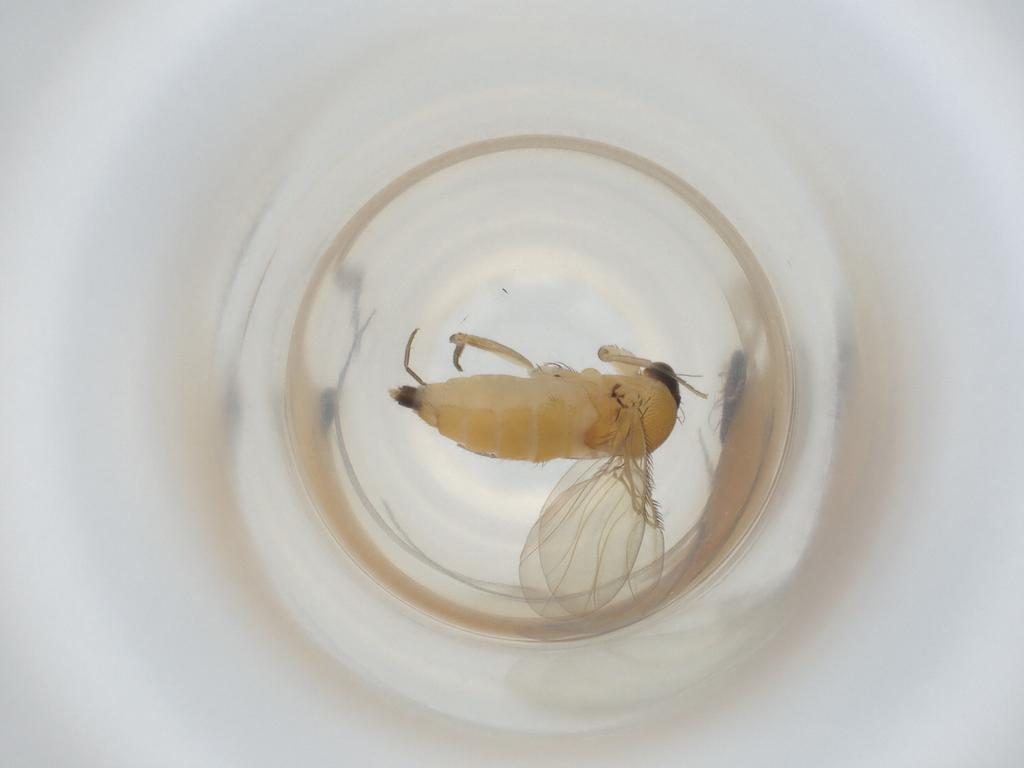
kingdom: Animalia
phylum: Arthropoda
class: Insecta
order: Diptera
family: Phoridae
